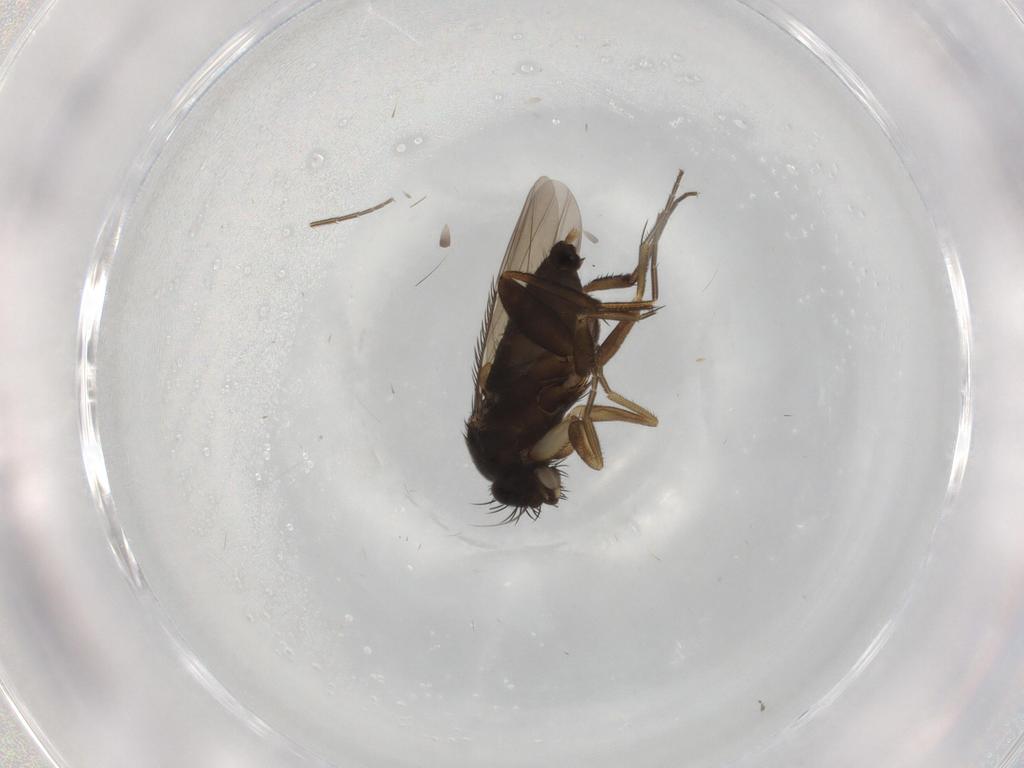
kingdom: Animalia
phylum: Arthropoda
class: Insecta
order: Diptera
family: Phoridae
